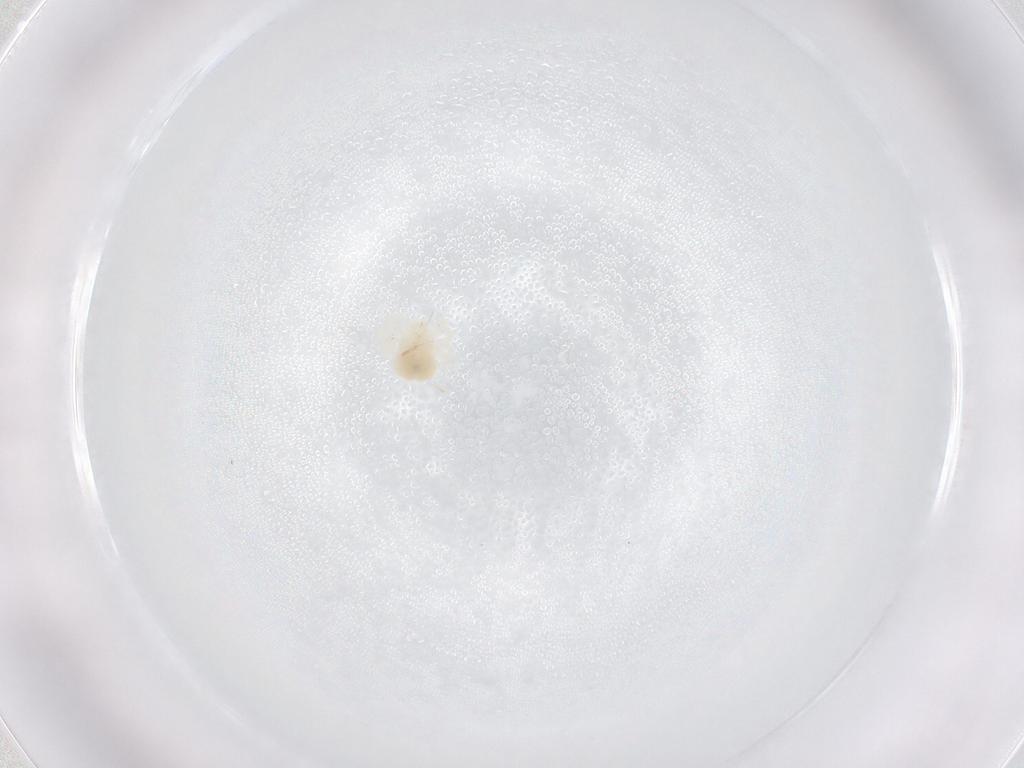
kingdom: Animalia
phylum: Arthropoda
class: Arachnida
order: Trombidiformes
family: Anystidae
